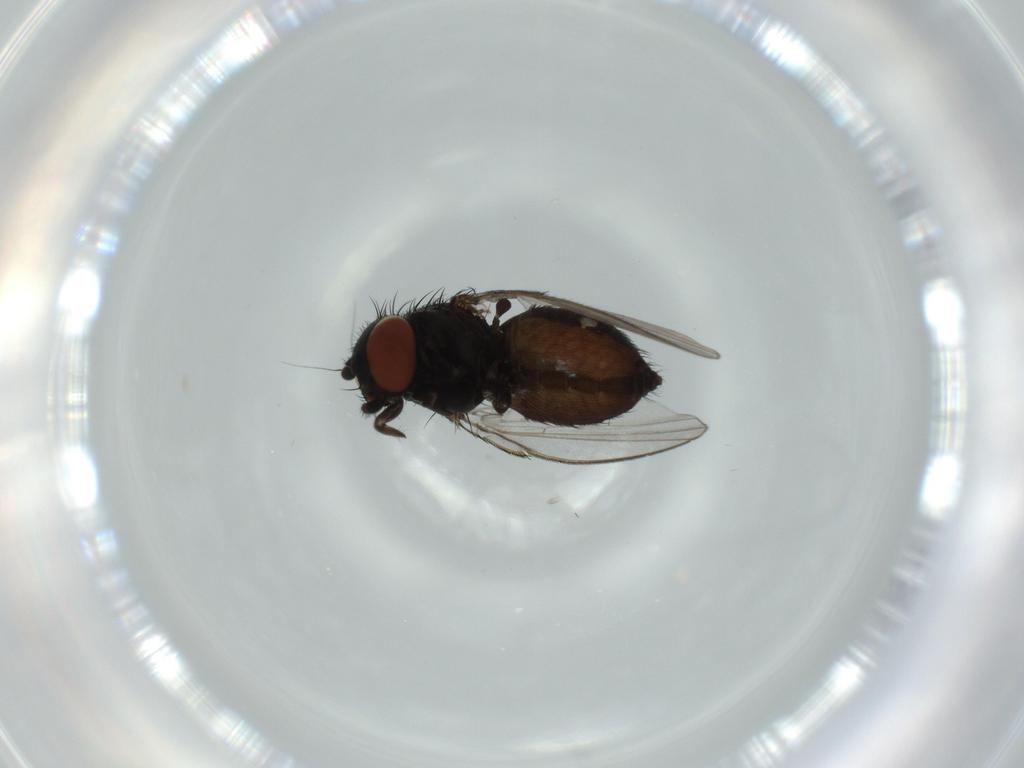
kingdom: Animalia
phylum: Arthropoda
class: Insecta
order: Diptera
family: Milichiidae
